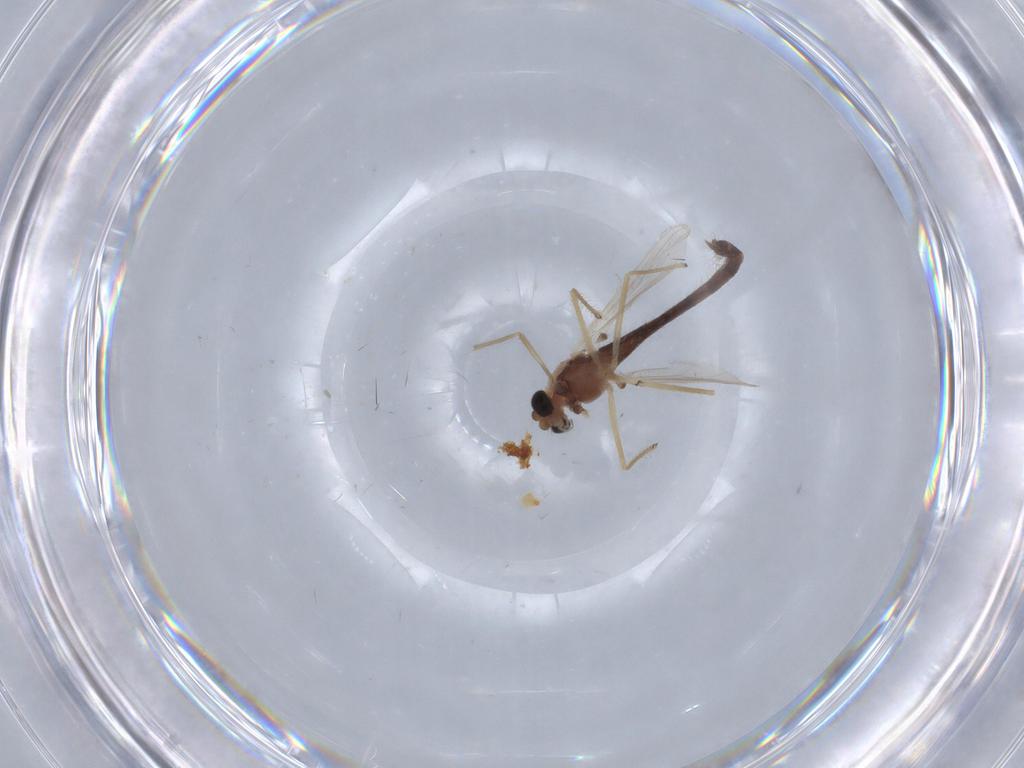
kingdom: Animalia
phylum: Arthropoda
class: Insecta
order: Diptera
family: Chironomidae
